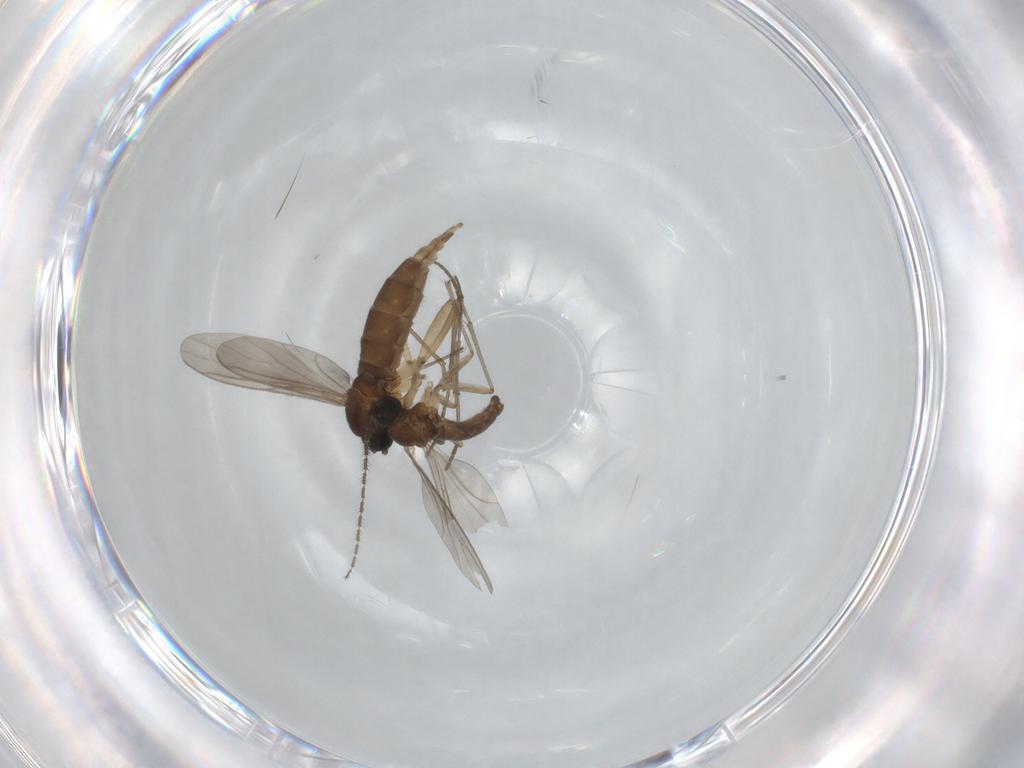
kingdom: Animalia
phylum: Arthropoda
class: Insecta
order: Diptera
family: Sciaridae
